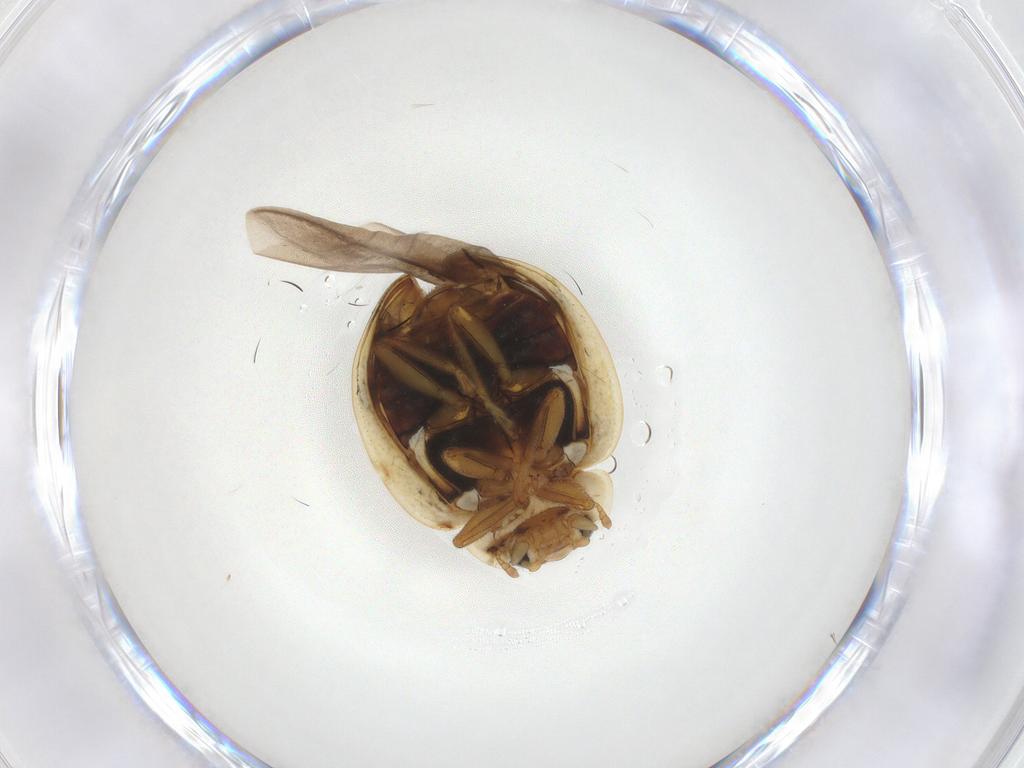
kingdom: Animalia
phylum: Arthropoda
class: Insecta
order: Coleoptera
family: Coccinellidae
